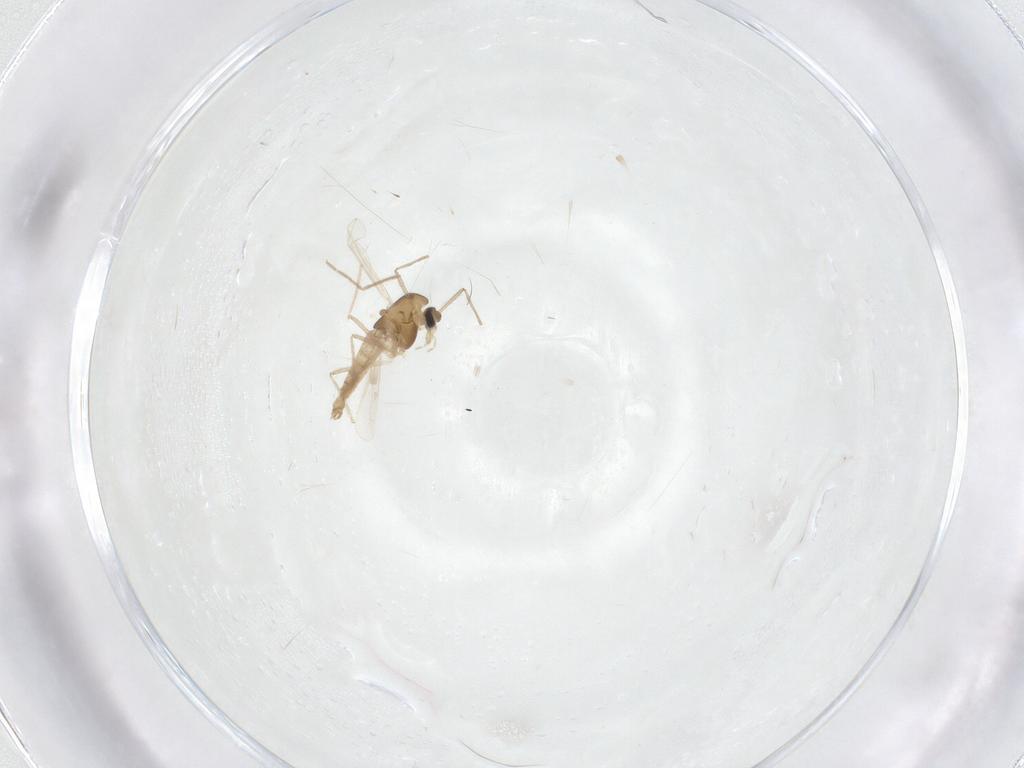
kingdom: Animalia
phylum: Arthropoda
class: Insecta
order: Diptera
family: Chironomidae
